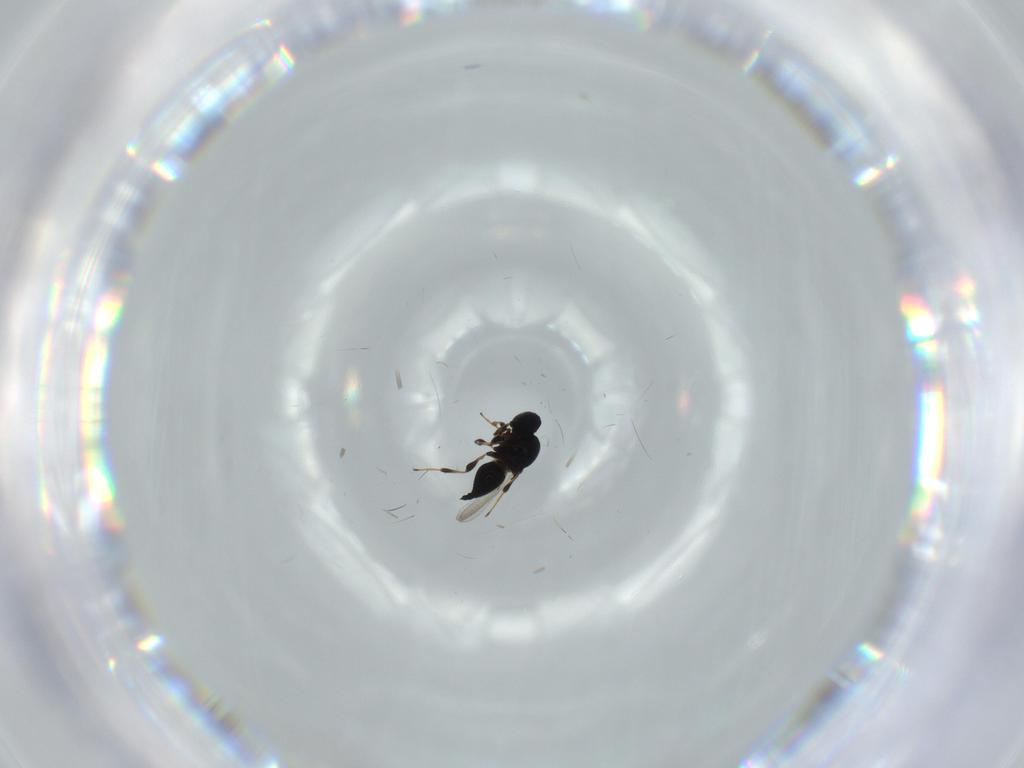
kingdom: Animalia
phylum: Arthropoda
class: Insecta
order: Hymenoptera
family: Platygastridae
